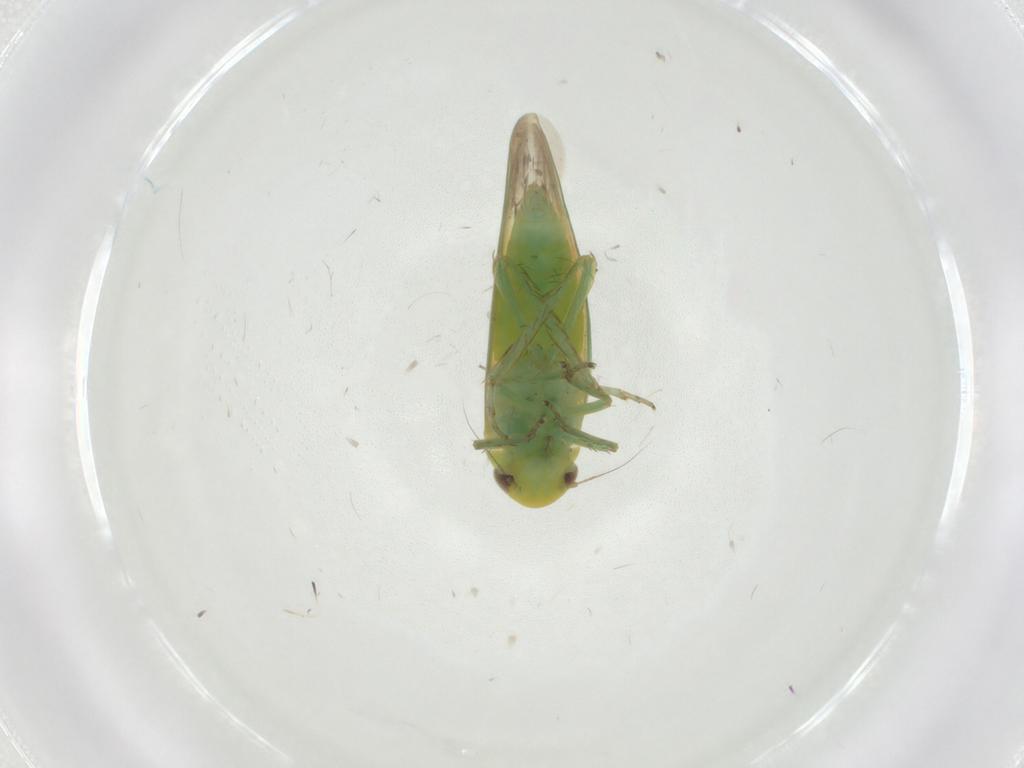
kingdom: Animalia
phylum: Arthropoda
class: Insecta
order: Hemiptera
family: Cicadellidae
